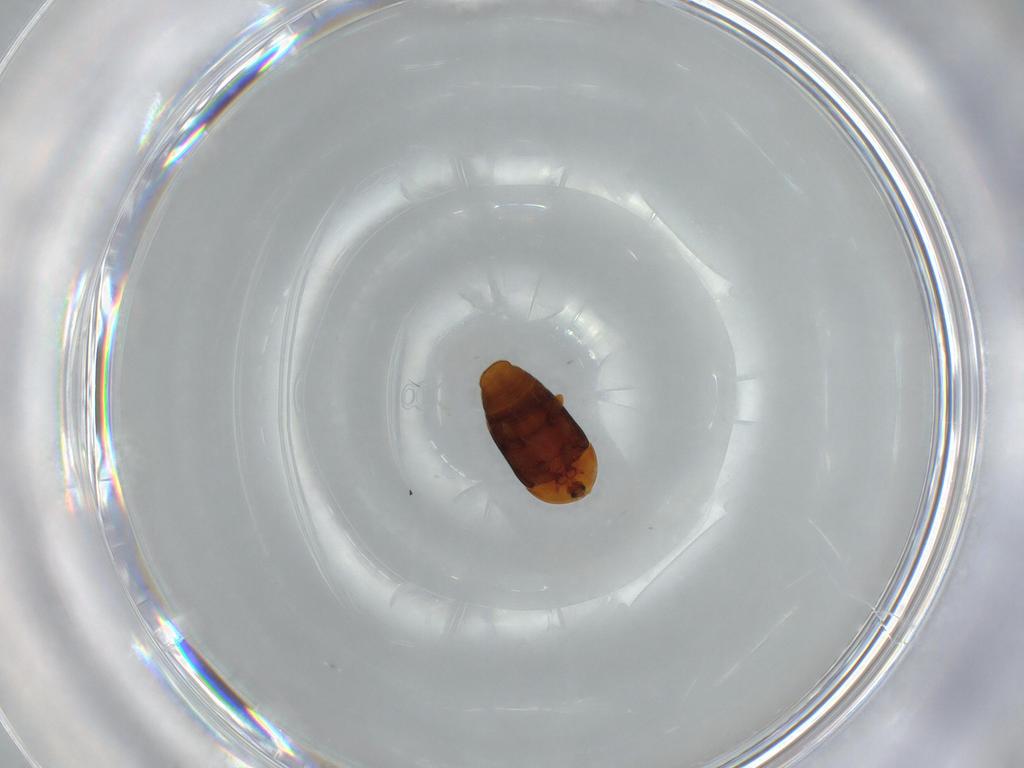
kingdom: Animalia
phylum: Arthropoda
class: Insecta
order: Coleoptera
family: Corylophidae
